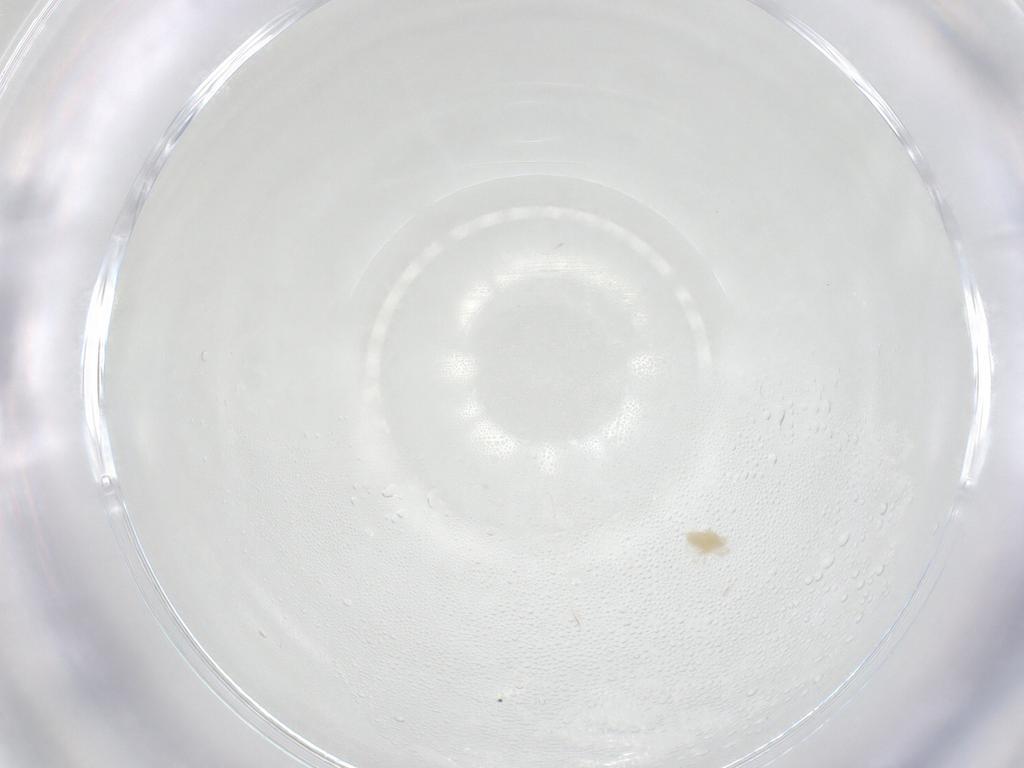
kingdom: Animalia
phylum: Arthropoda
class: Arachnida
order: Trombidiformes
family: Tetranychidae
